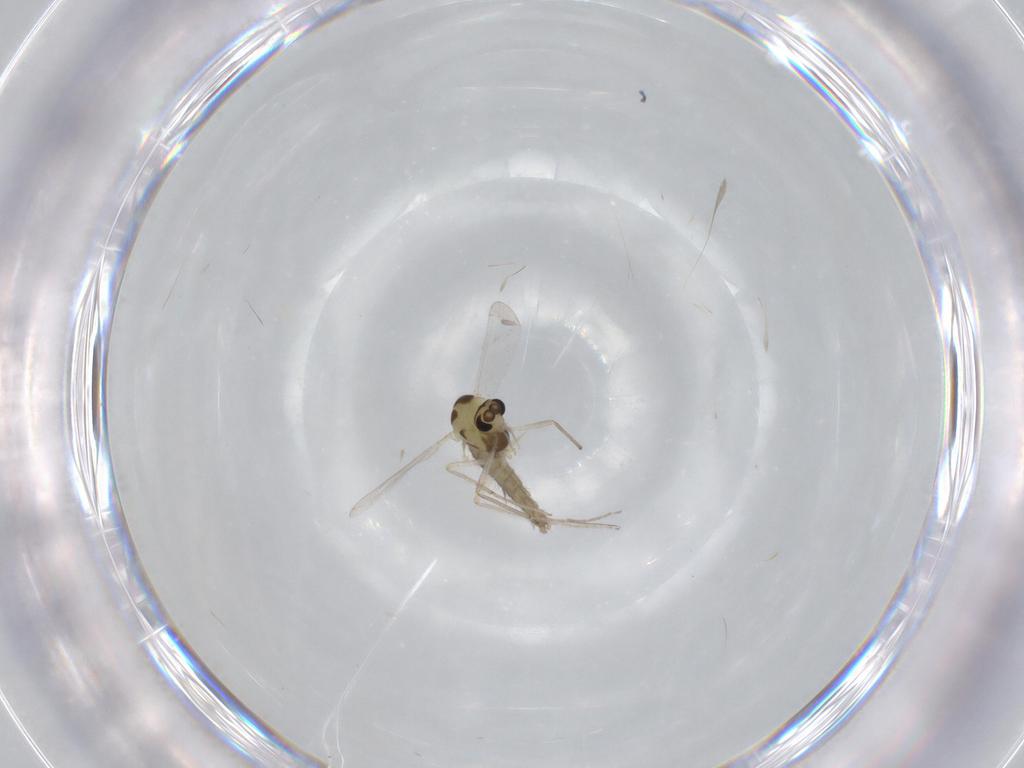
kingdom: Animalia
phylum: Arthropoda
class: Insecta
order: Diptera
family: Chironomidae
